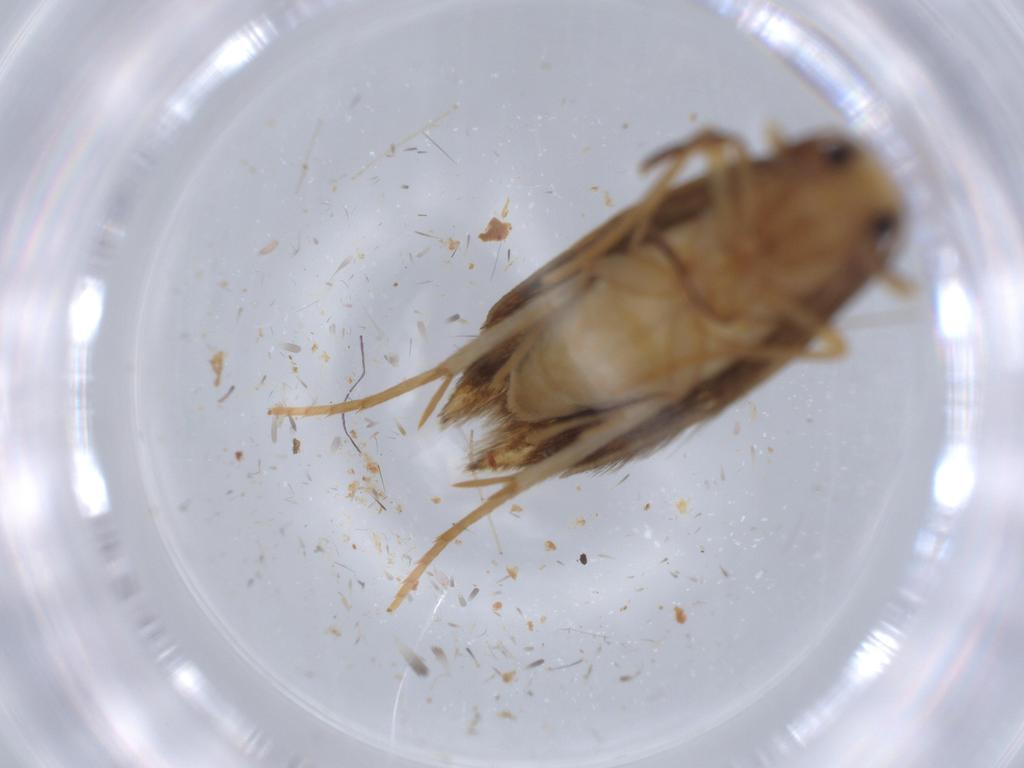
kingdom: Animalia
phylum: Arthropoda
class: Insecta
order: Lepidoptera
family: Tineidae
